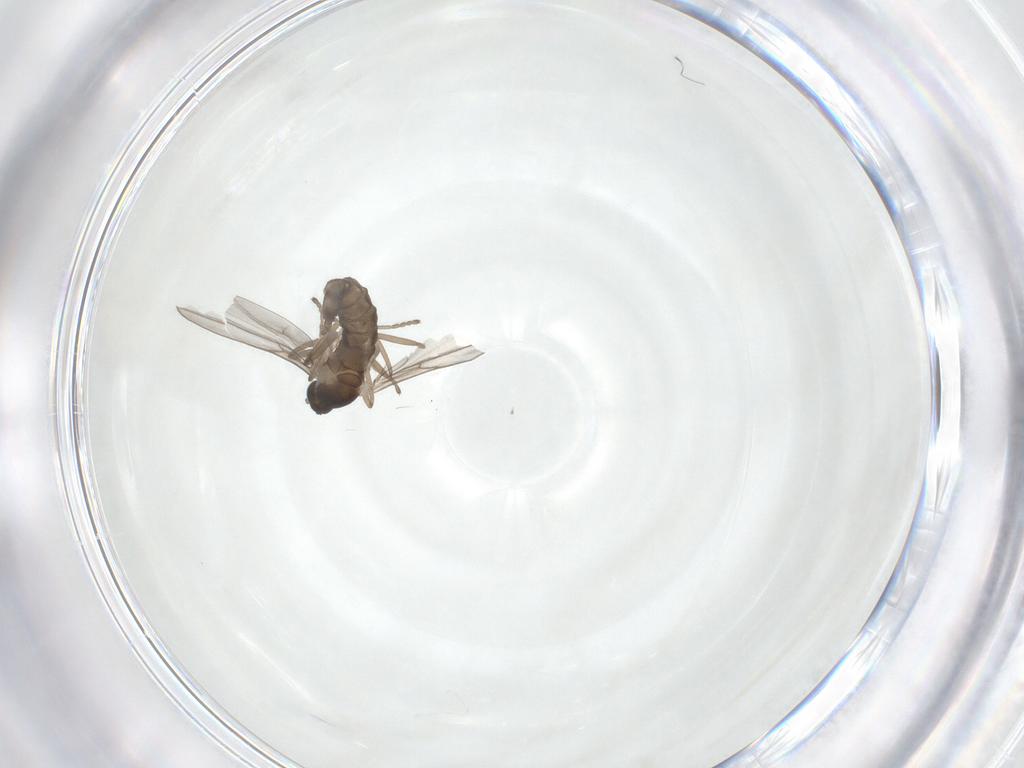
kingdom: Animalia
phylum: Arthropoda
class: Insecta
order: Diptera
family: Cecidomyiidae
